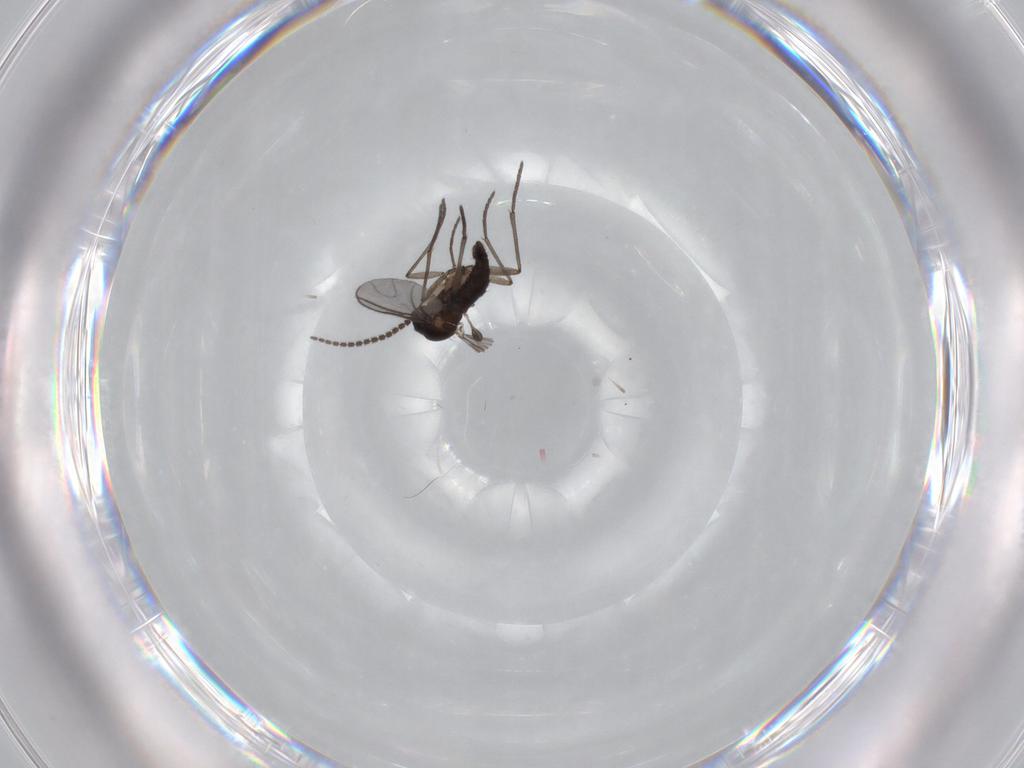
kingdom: Animalia
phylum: Arthropoda
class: Insecta
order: Diptera
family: Sciaridae
